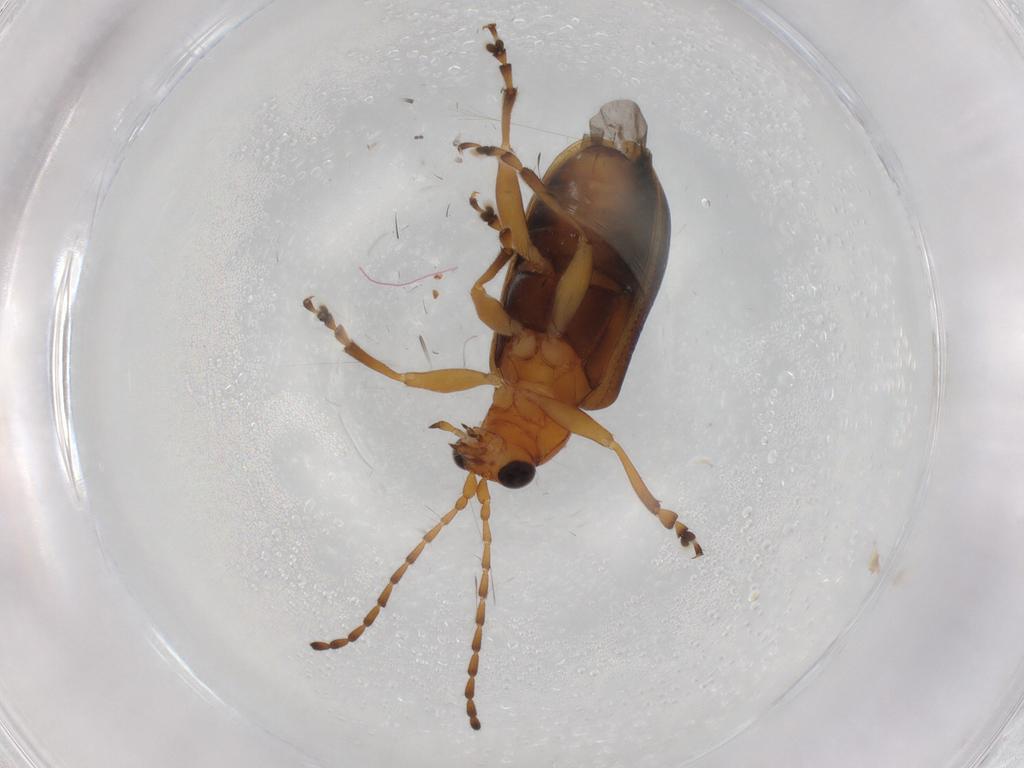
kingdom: Animalia
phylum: Arthropoda
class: Insecta
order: Coleoptera
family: Chrysomelidae
